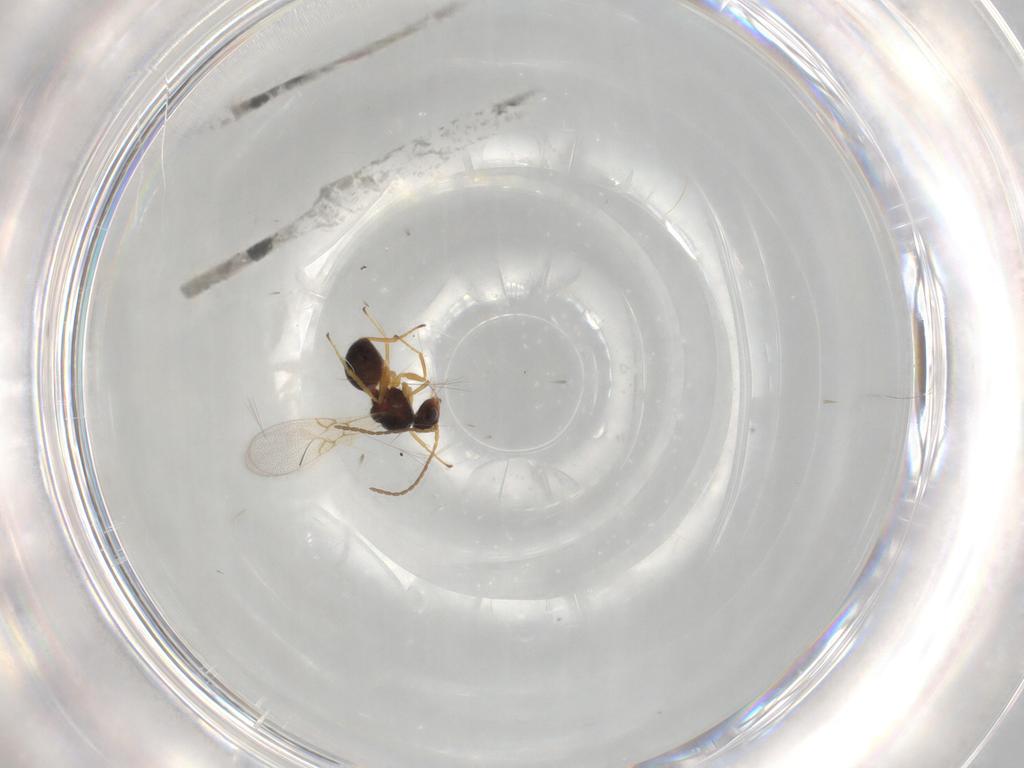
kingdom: Animalia
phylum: Arthropoda
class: Insecta
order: Hymenoptera
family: Figitidae
